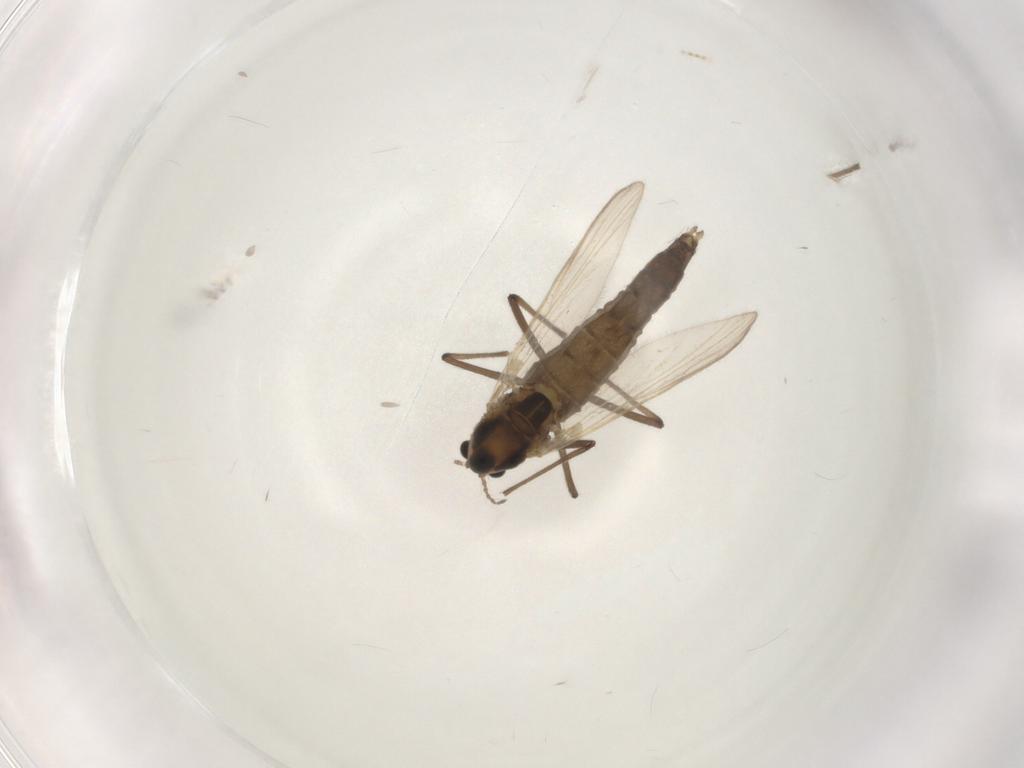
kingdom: Animalia
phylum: Arthropoda
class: Insecta
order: Diptera
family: Chironomidae
